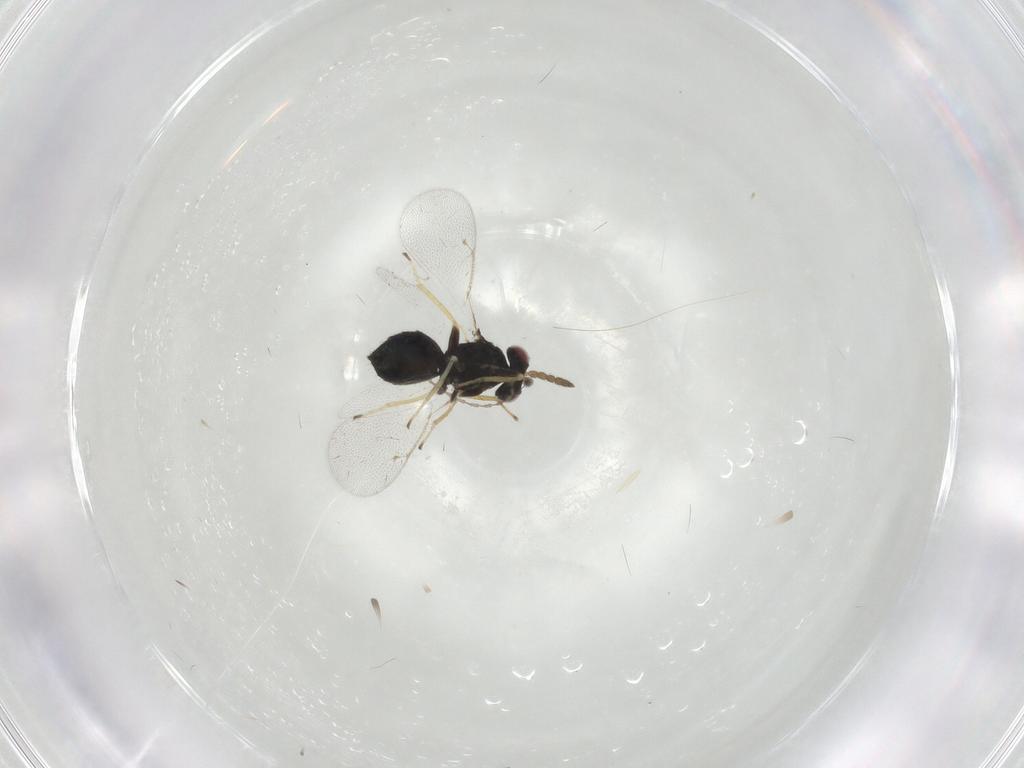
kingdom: Animalia
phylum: Arthropoda
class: Insecta
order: Hymenoptera
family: Eulophidae
